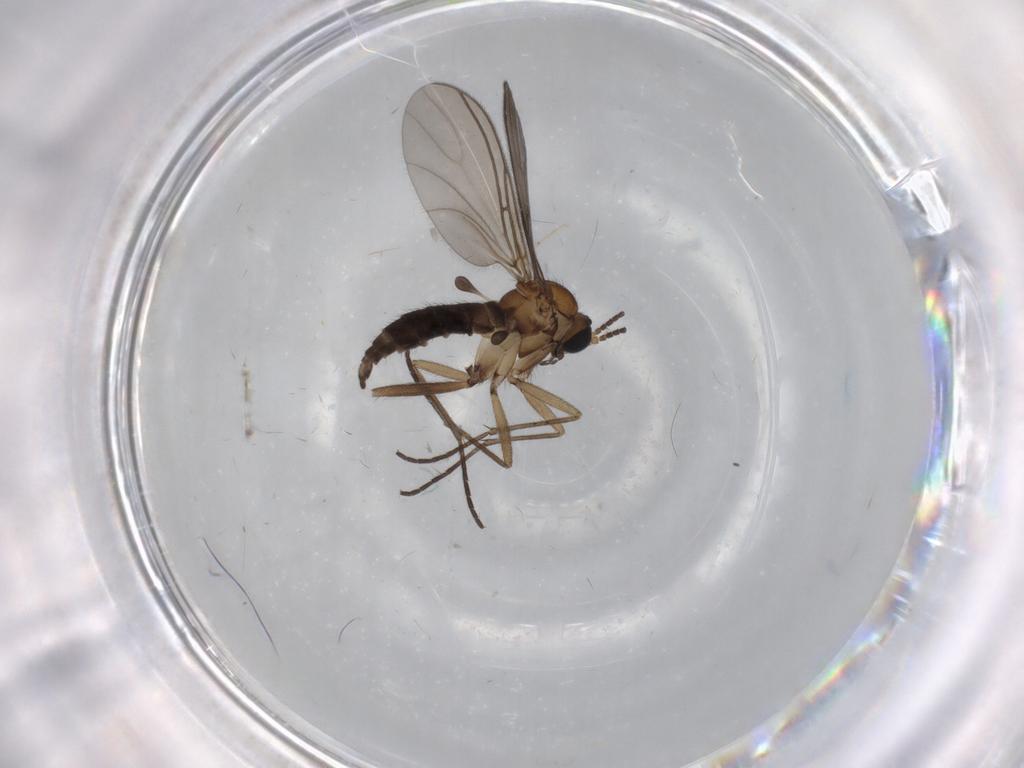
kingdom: Animalia
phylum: Arthropoda
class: Insecta
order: Diptera
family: Sciaridae
